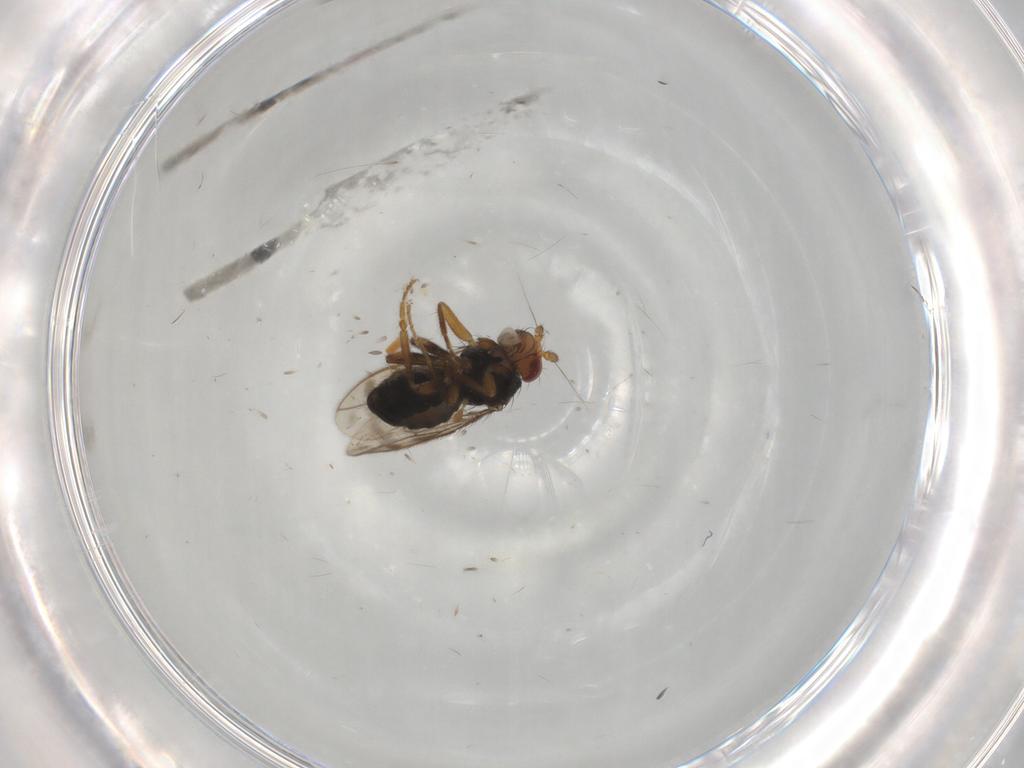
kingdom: Animalia
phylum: Arthropoda
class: Insecta
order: Diptera
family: Sphaeroceridae
